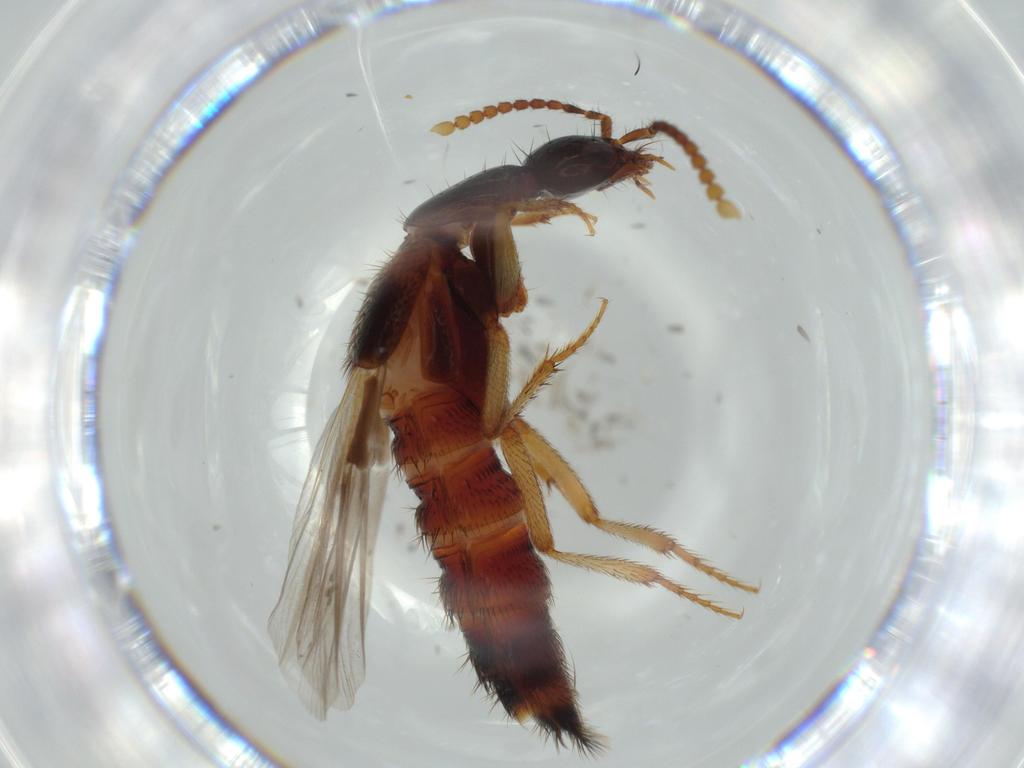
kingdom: Animalia
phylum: Arthropoda
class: Insecta
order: Coleoptera
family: Staphylinidae
